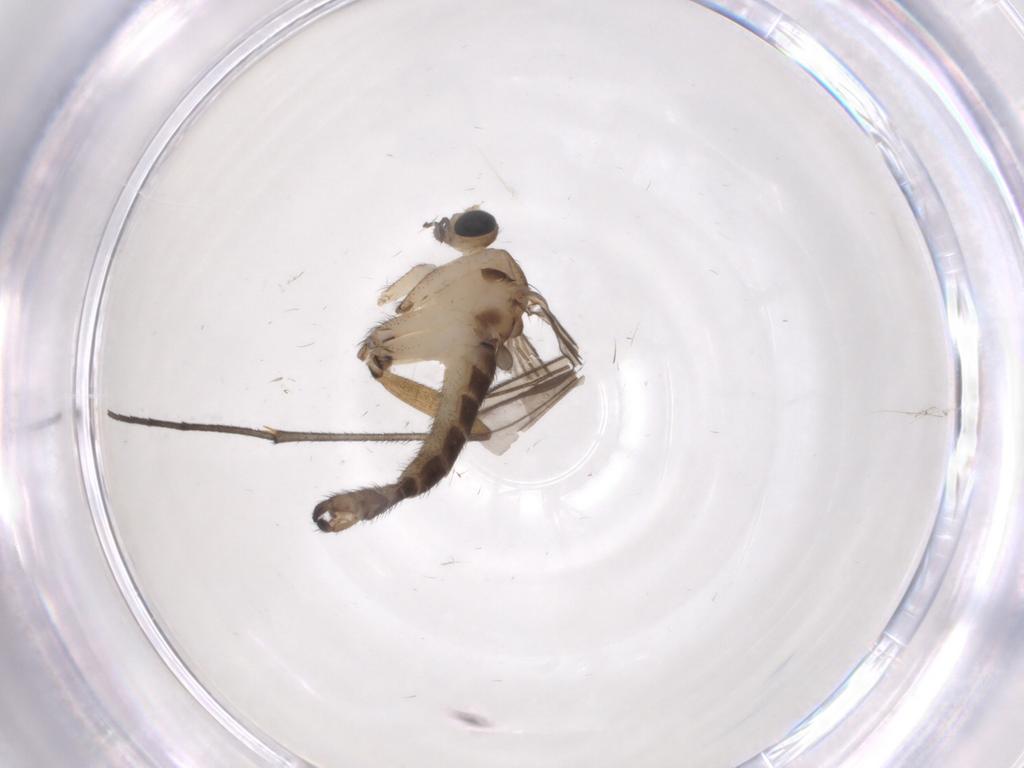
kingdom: Animalia
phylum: Arthropoda
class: Insecta
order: Diptera
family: Sciaridae
